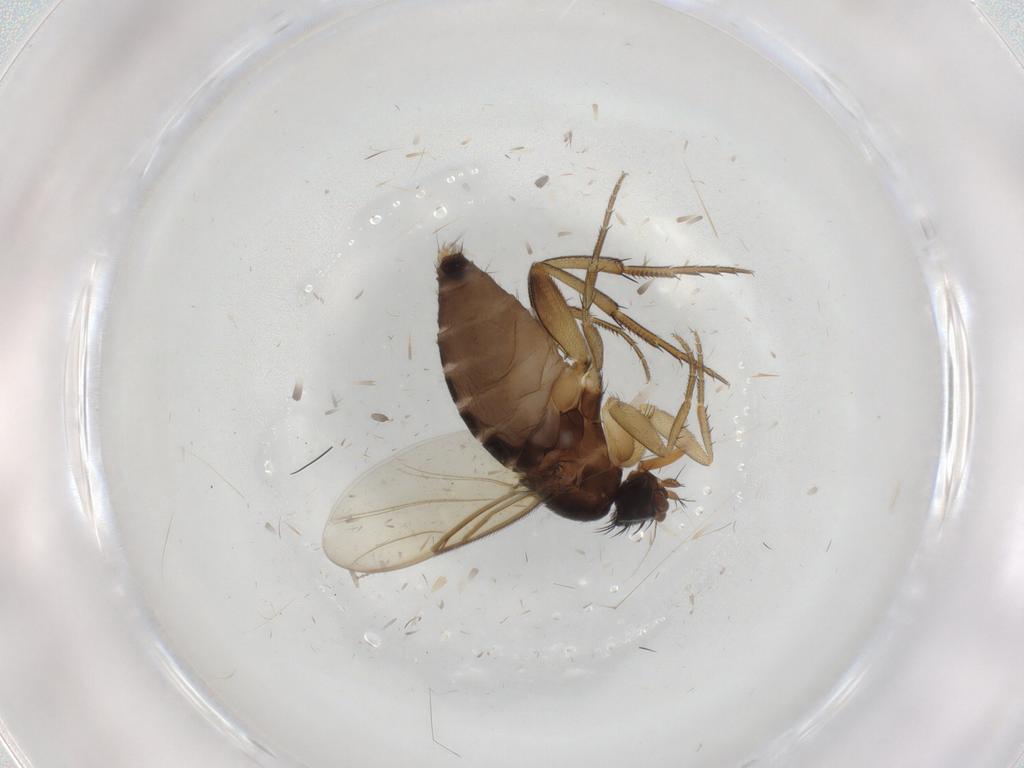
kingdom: Animalia
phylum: Arthropoda
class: Insecta
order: Diptera
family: Phoridae
